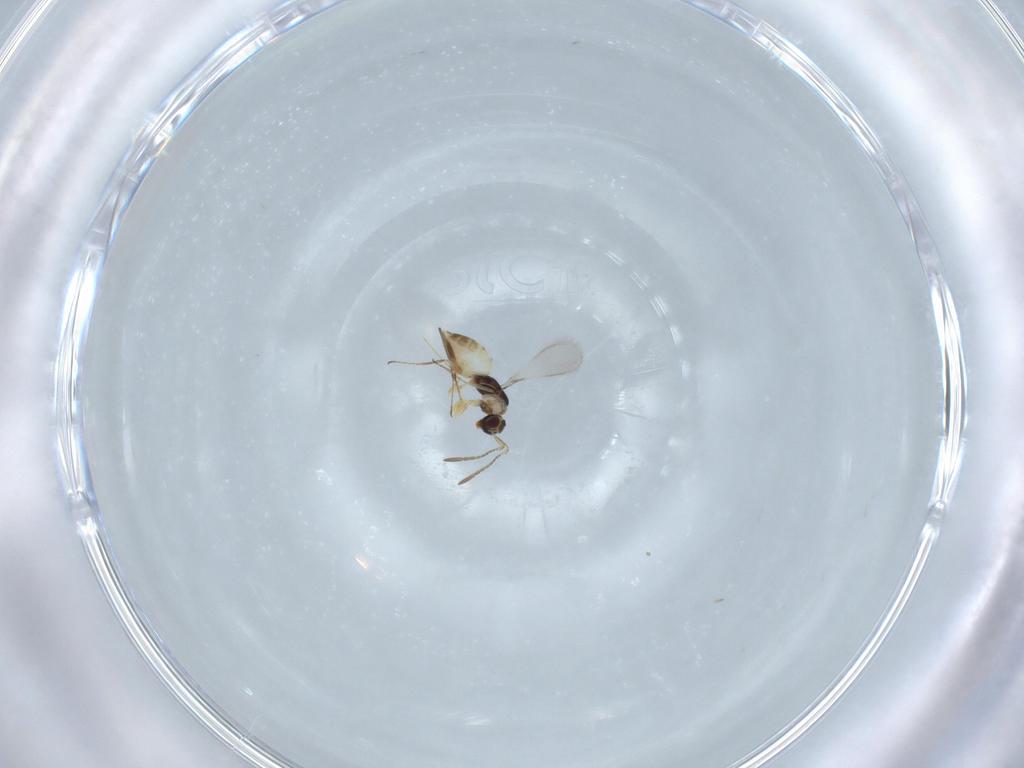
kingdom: Animalia
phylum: Arthropoda
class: Insecta
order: Hymenoptera
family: Mymaridae
